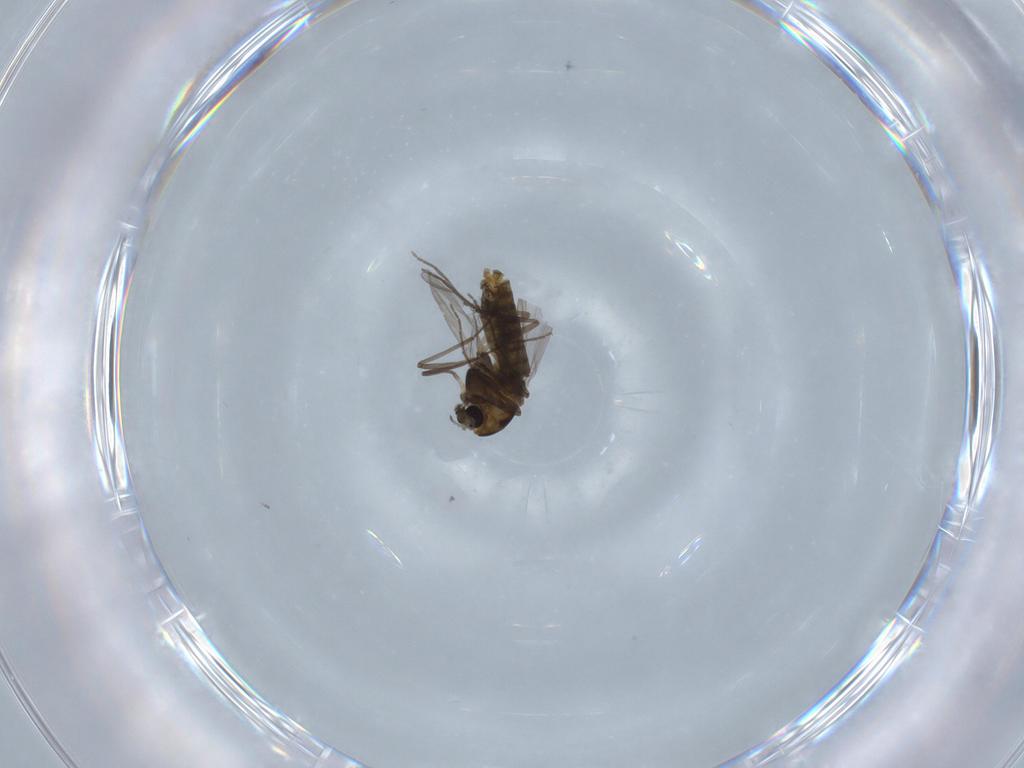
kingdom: Animalia
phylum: Arthropoda
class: Insecta
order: Diptera
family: Chironomidae
